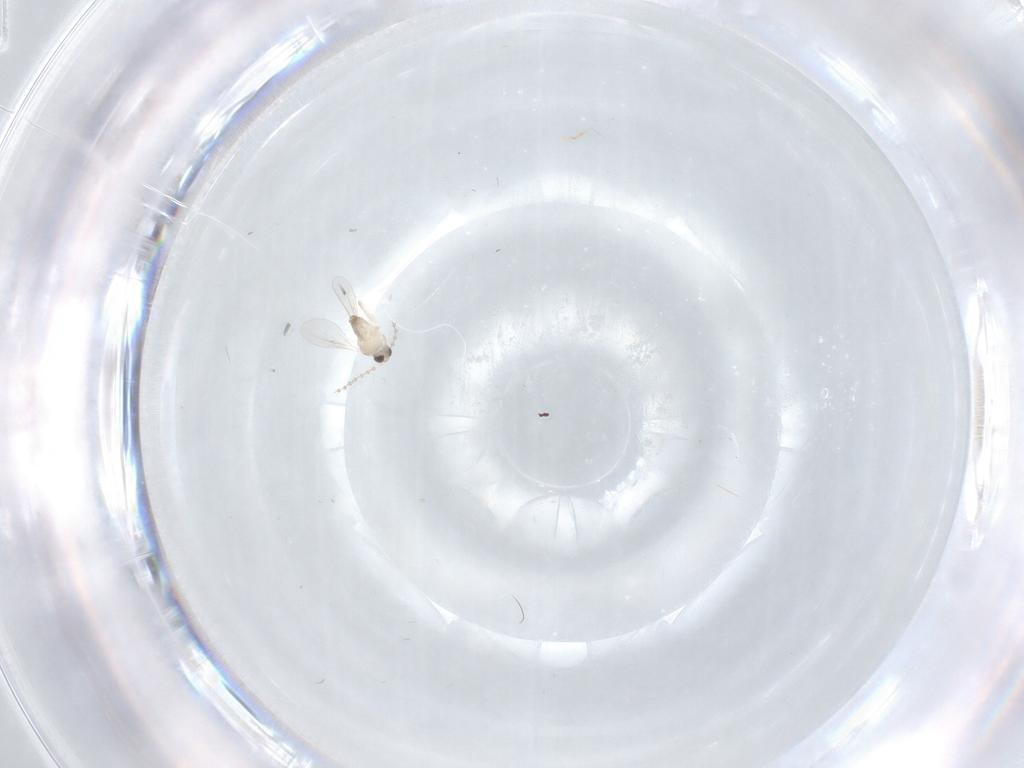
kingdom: Animalia
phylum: Arthropoda
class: Insecta
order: Diptera
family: Cecidomyiidae
